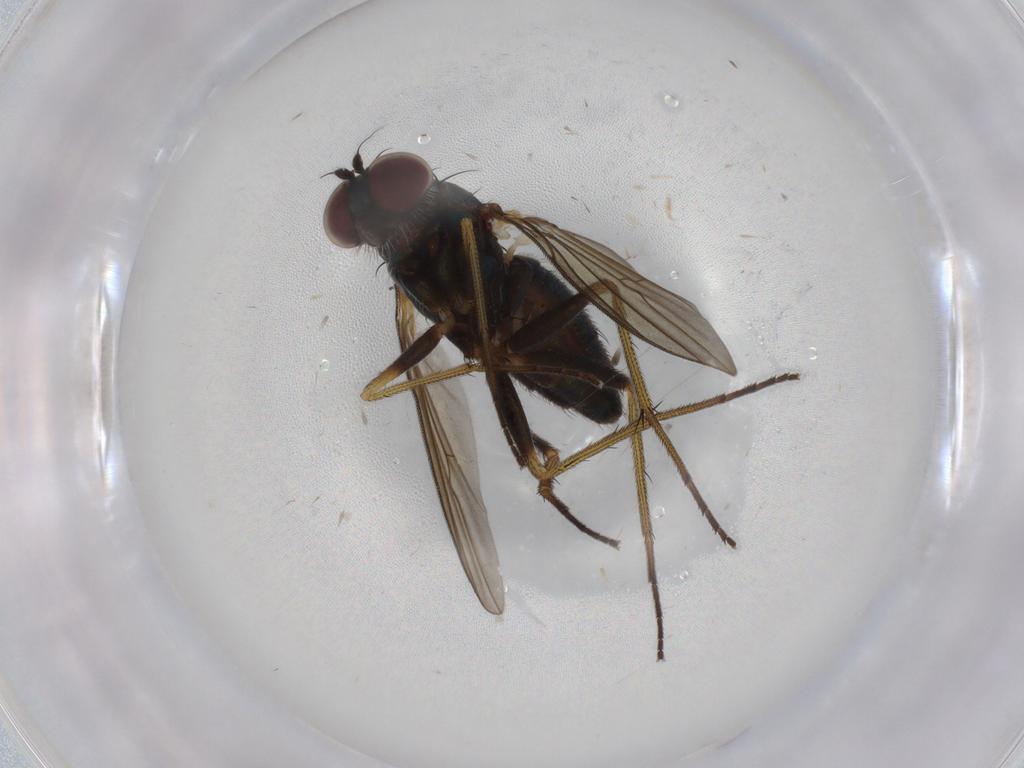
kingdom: Animalia
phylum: Arthropoda
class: Insecta
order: Diptera
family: Dolichopodidae
